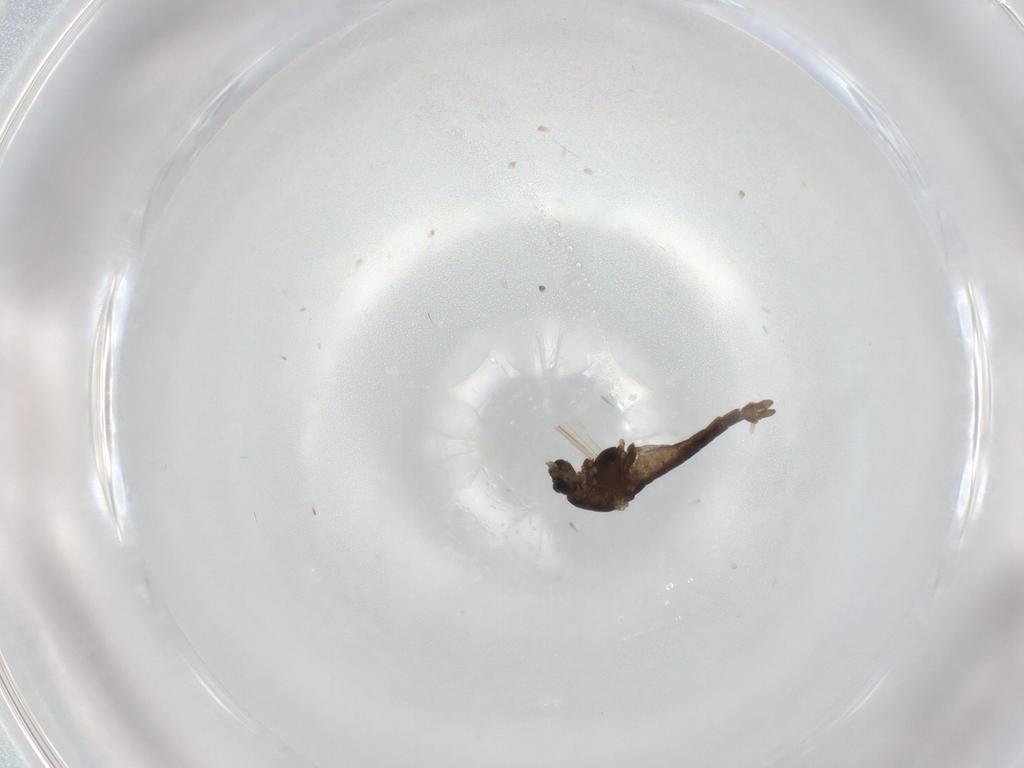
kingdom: Animalia
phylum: Arthropoda
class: Insecta
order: Diptera
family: Chironomidae
